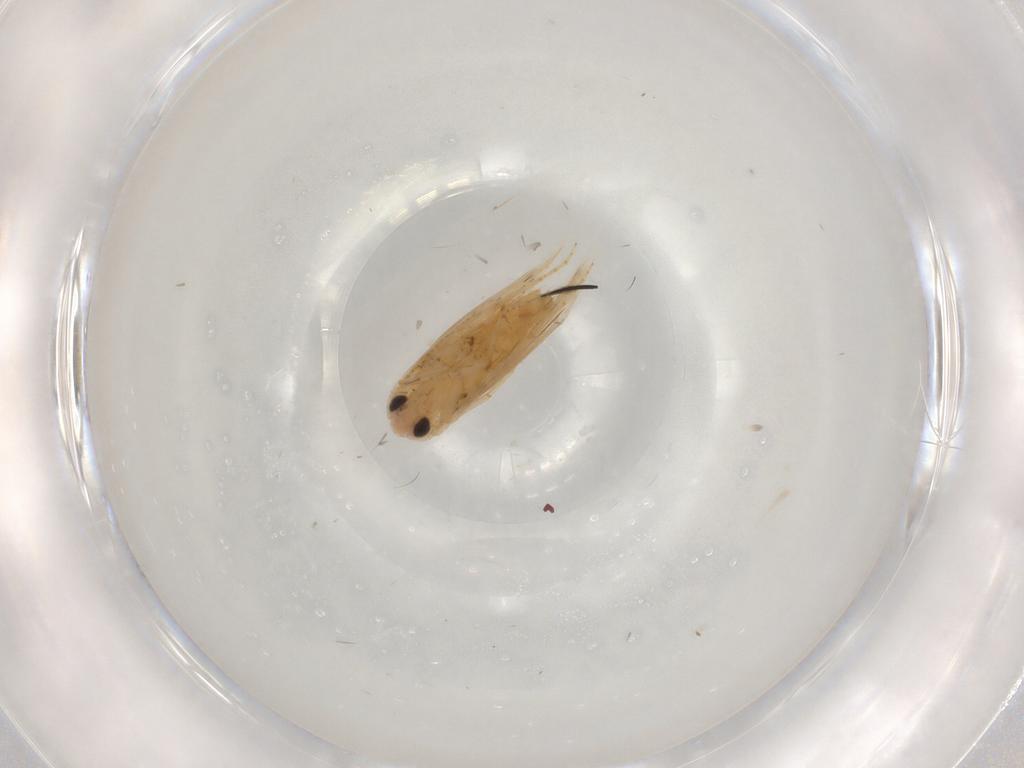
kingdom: Animalia
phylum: Arthropoda
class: Insecta
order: Lepidoptera
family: Bucculatricidae
